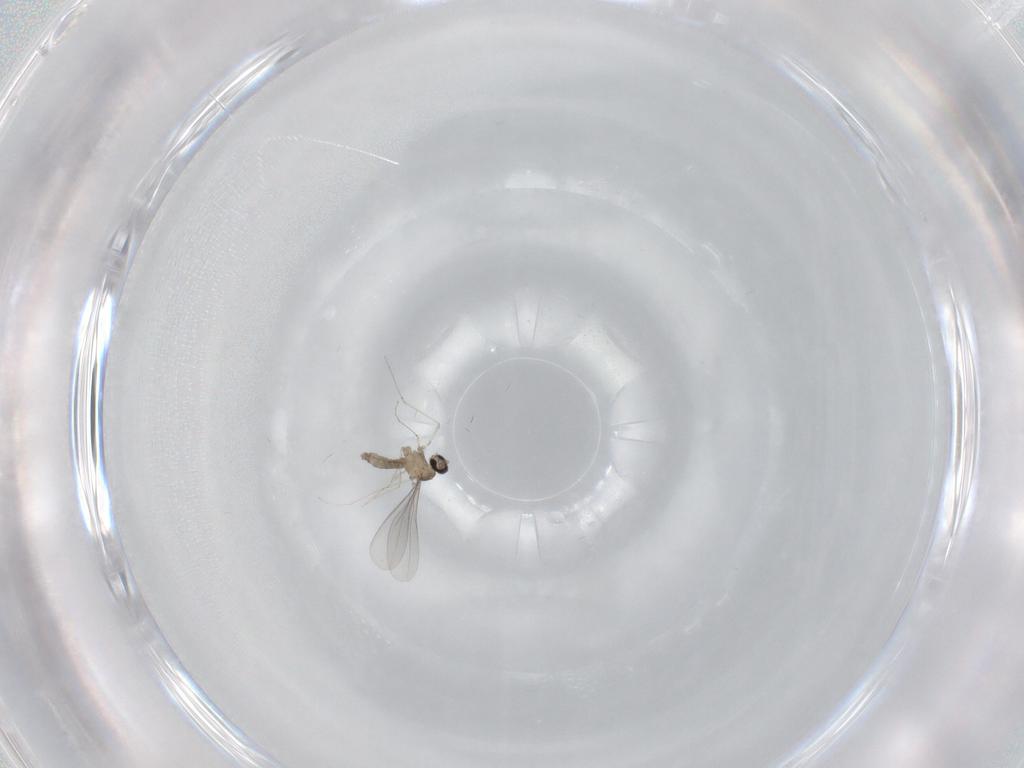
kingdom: Animalia
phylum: Arthropoda
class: Insecta
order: Diptera
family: Cecidomyiidae
